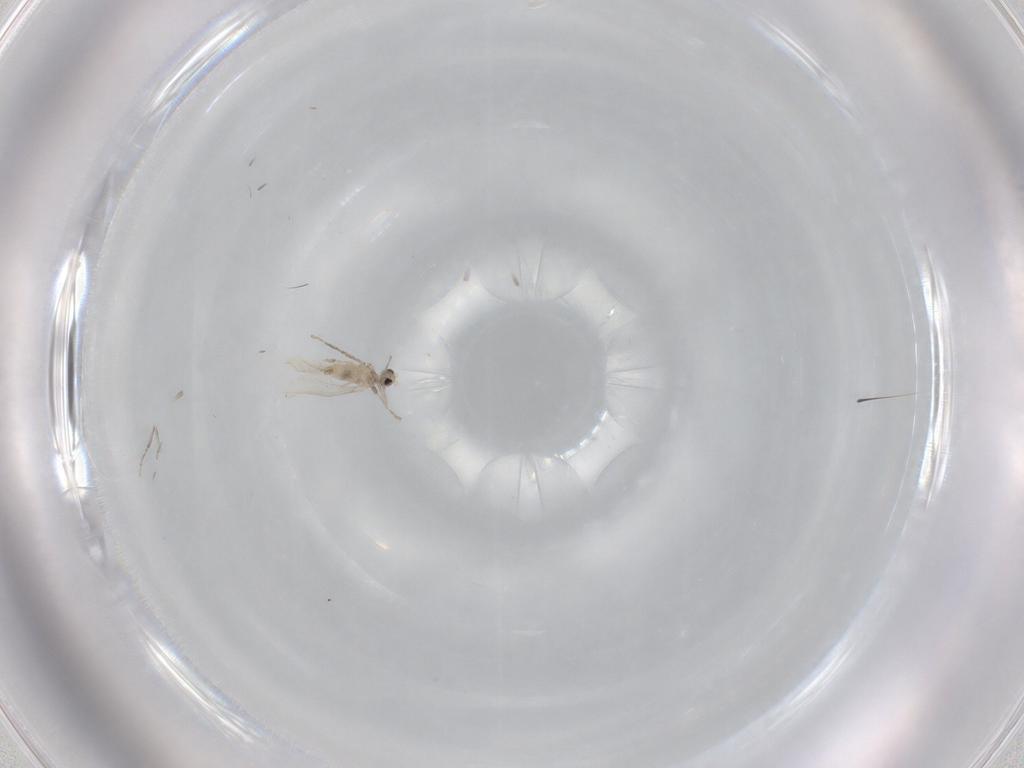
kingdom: Animalia
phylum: Arthropoda
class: Insecta
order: Diptera
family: Cecidomyiidae
